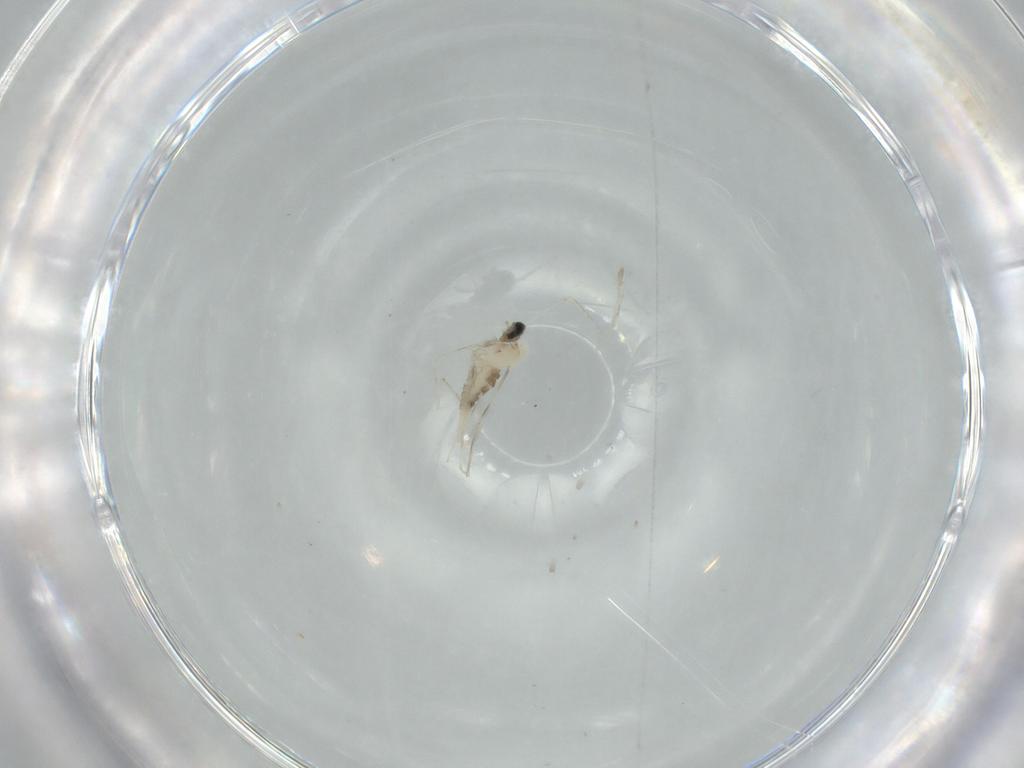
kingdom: Animalia
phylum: Arthropoda
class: Insecta
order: Diptera
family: Cecidomyiidae
